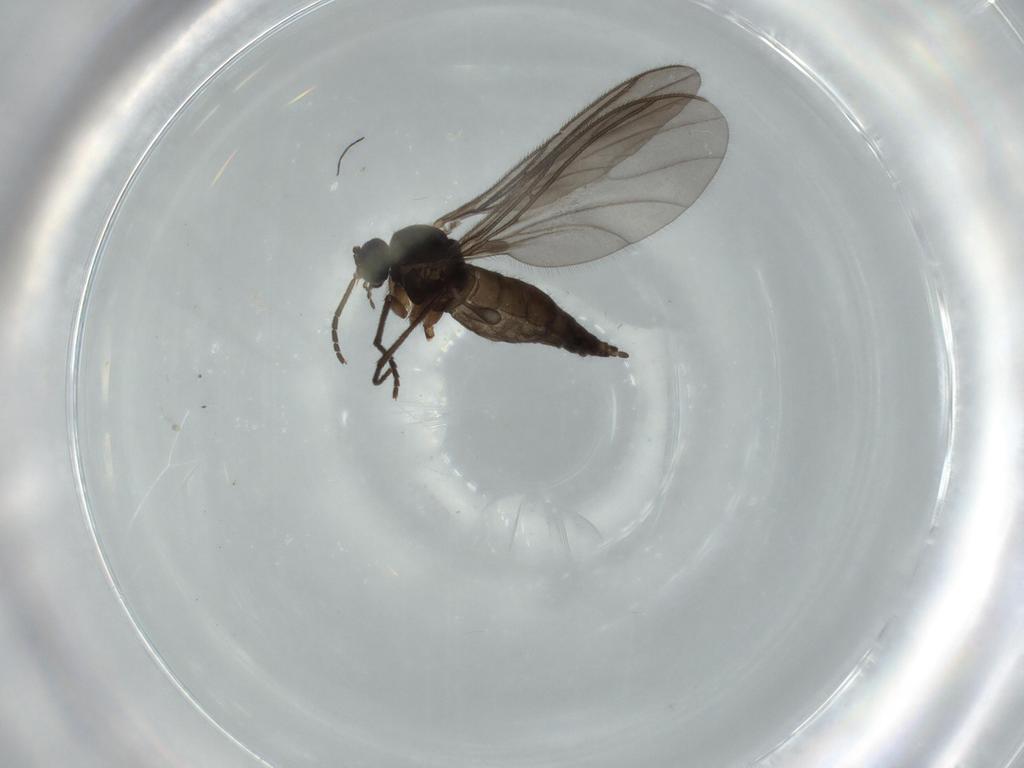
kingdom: Animalia
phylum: Arthropoda
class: Insecta
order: Diptera
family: Sciaridae
